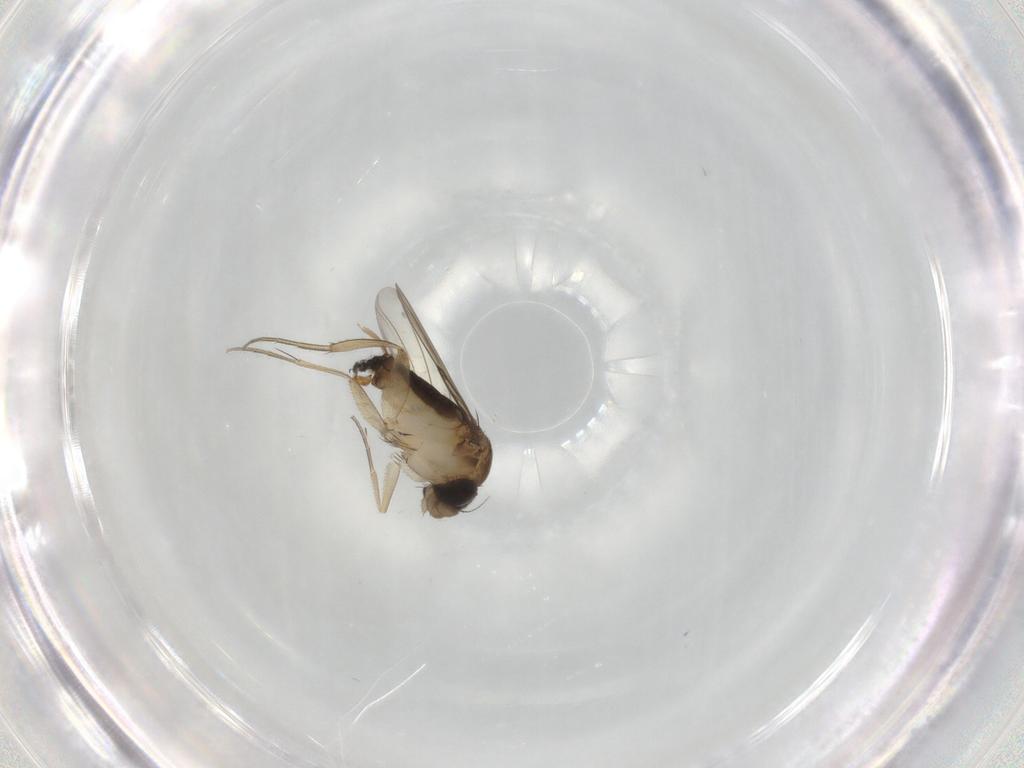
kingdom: Animalia
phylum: Arthropoda
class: Insecta
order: Diptera
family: Phoridae
